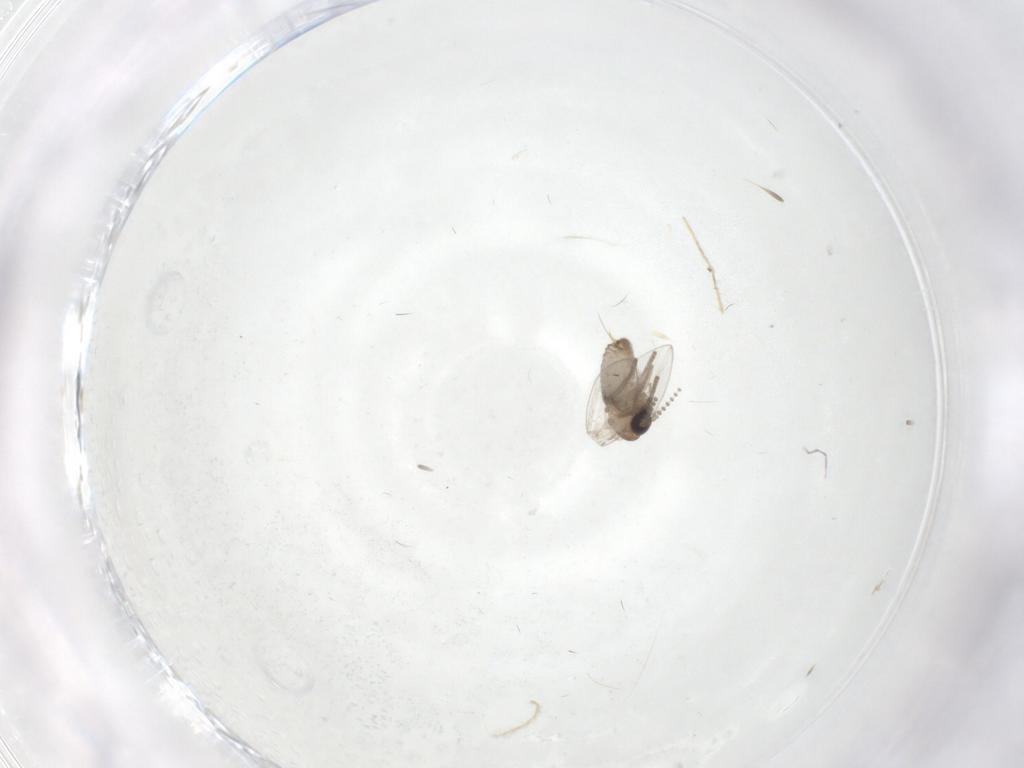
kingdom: Animalia
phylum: Arthropoda
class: Insecta
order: Diptera
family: Psychodidae
